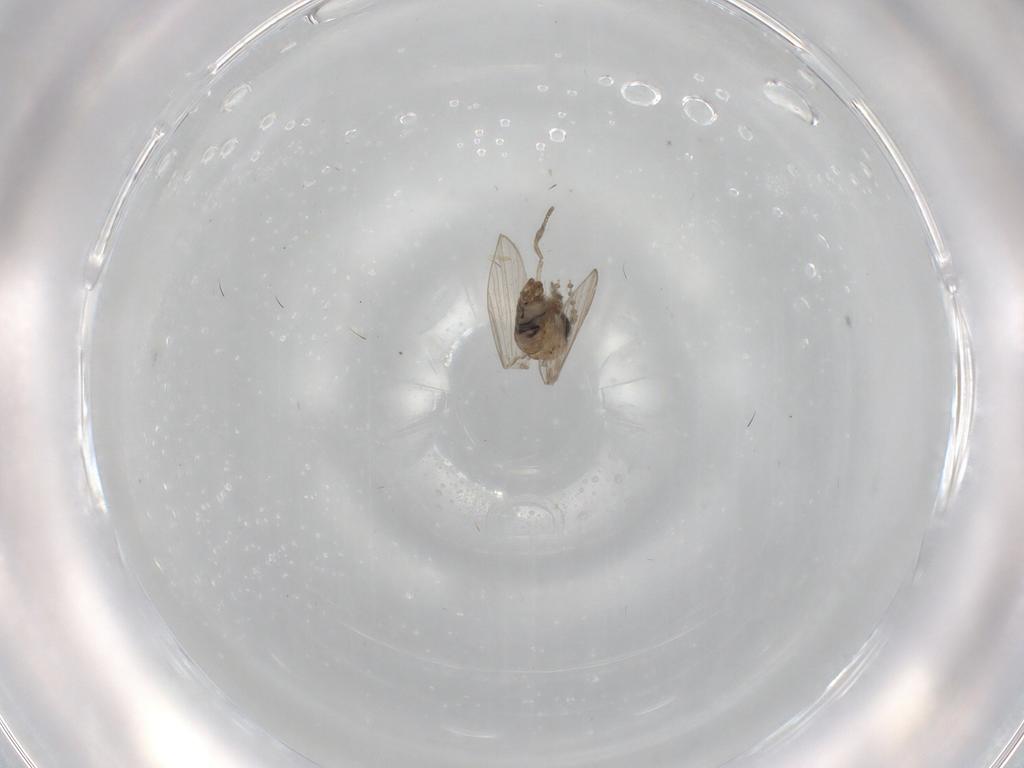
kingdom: Animalia
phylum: Arthropoda
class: Insecta
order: Diptera
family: Psychodidae
